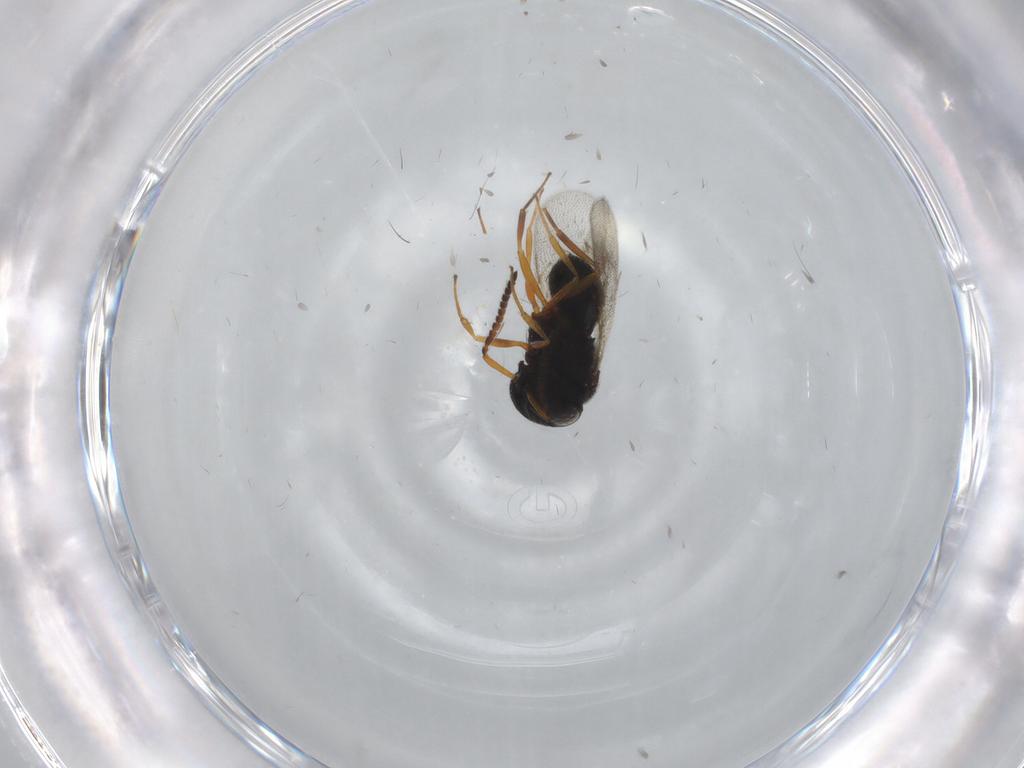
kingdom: Animalia
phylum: Arthropoda
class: Insecta
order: Hymenoptera
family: Scelionidae
